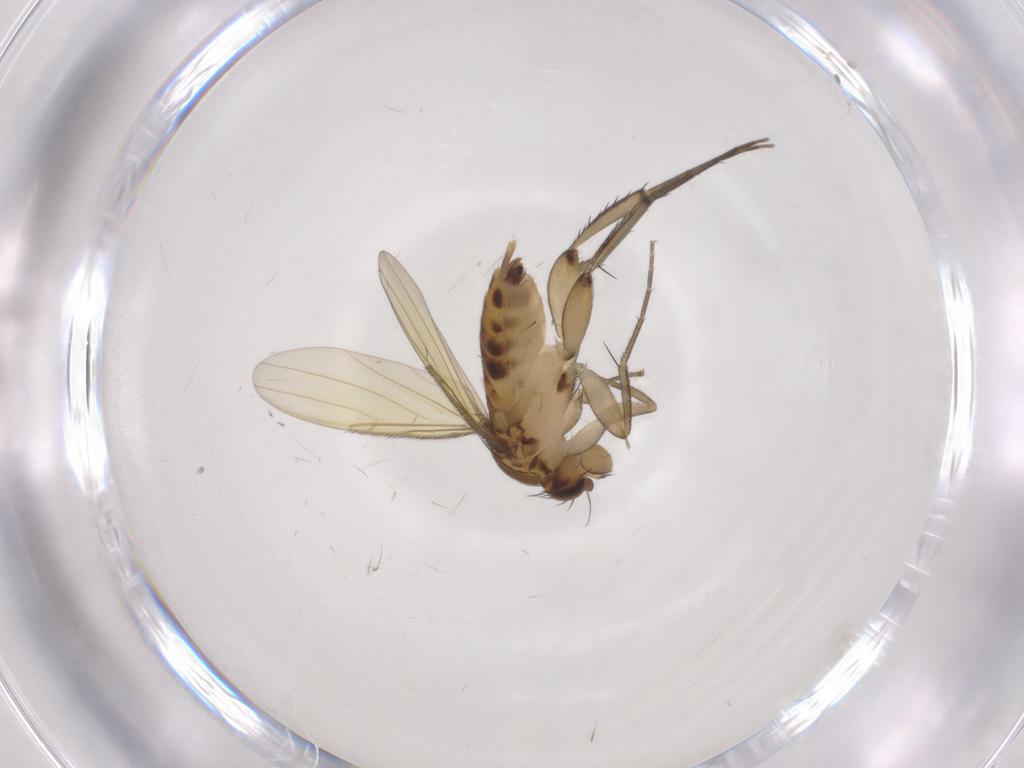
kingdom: Animalia
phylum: Arthropoda
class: Insecta
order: Diptera
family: Phoridae
